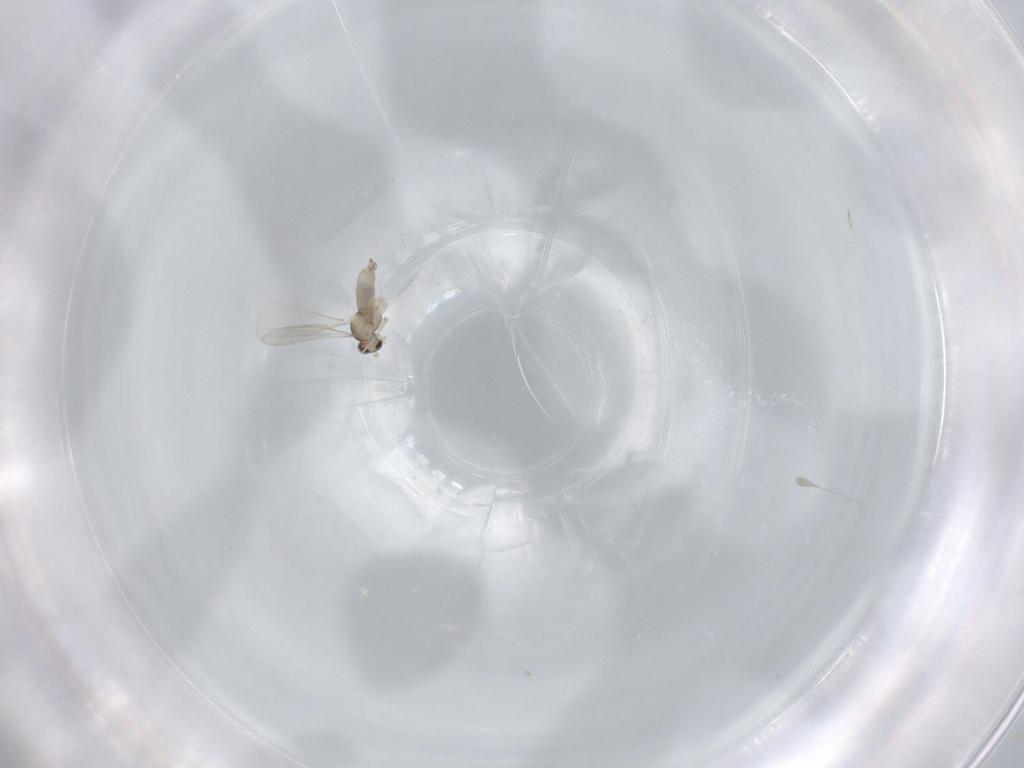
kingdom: Animalia
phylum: Arthropoda
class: Insecta
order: Diptera
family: Cecidomyiidae
